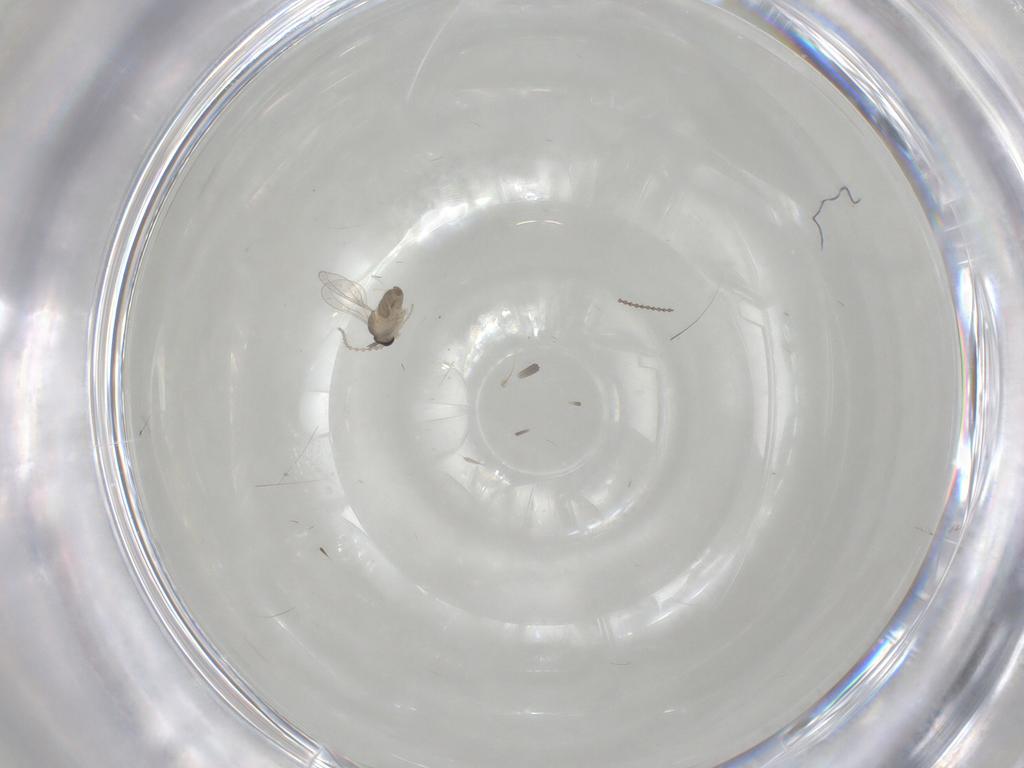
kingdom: Animalia
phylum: Arthropoda
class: Insecta
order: Diptera
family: Cecidomyiidae
